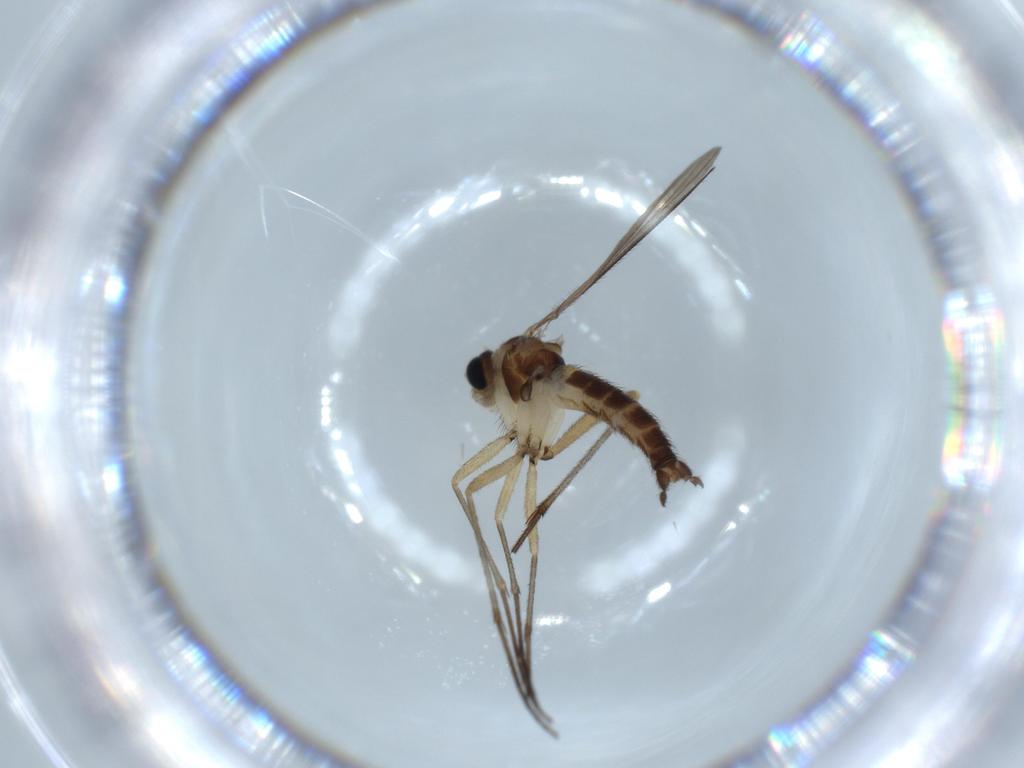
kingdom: Animalia
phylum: Arthropoda
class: Insecta
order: Diptera
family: Sciaridae
